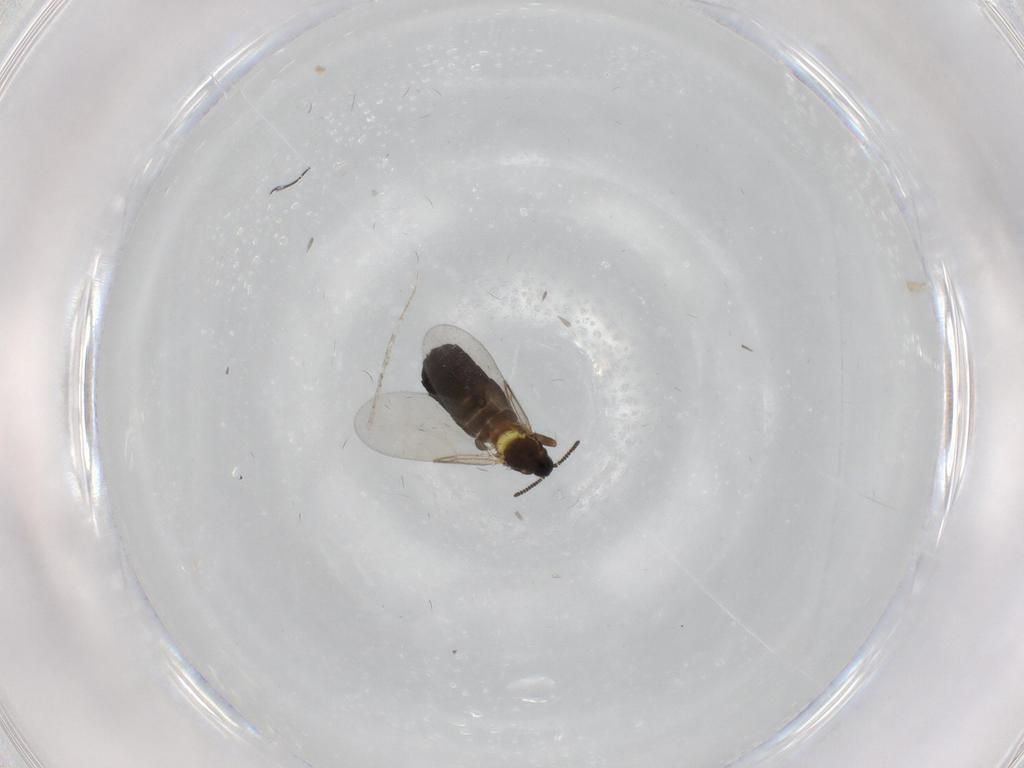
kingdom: Animalia
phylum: Arthropoda
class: Insecta
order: Diptera
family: Scatopsidae
